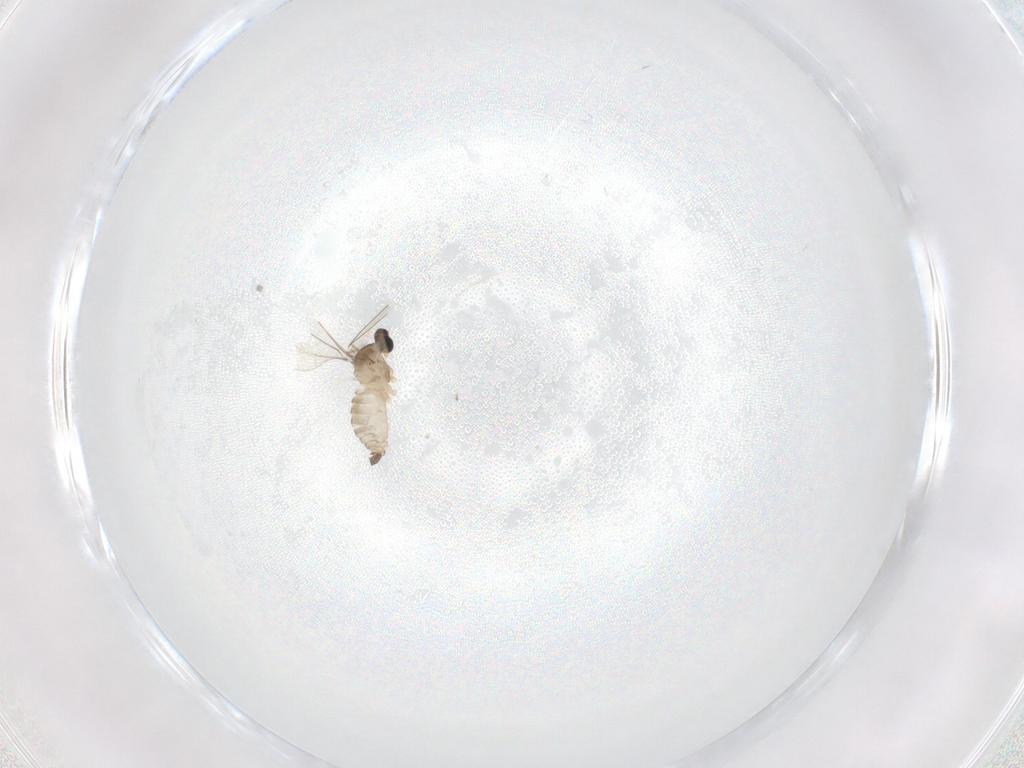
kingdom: Animalia
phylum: Arthropoda
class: Insecta
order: Diptera
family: Cecidomyiidae
